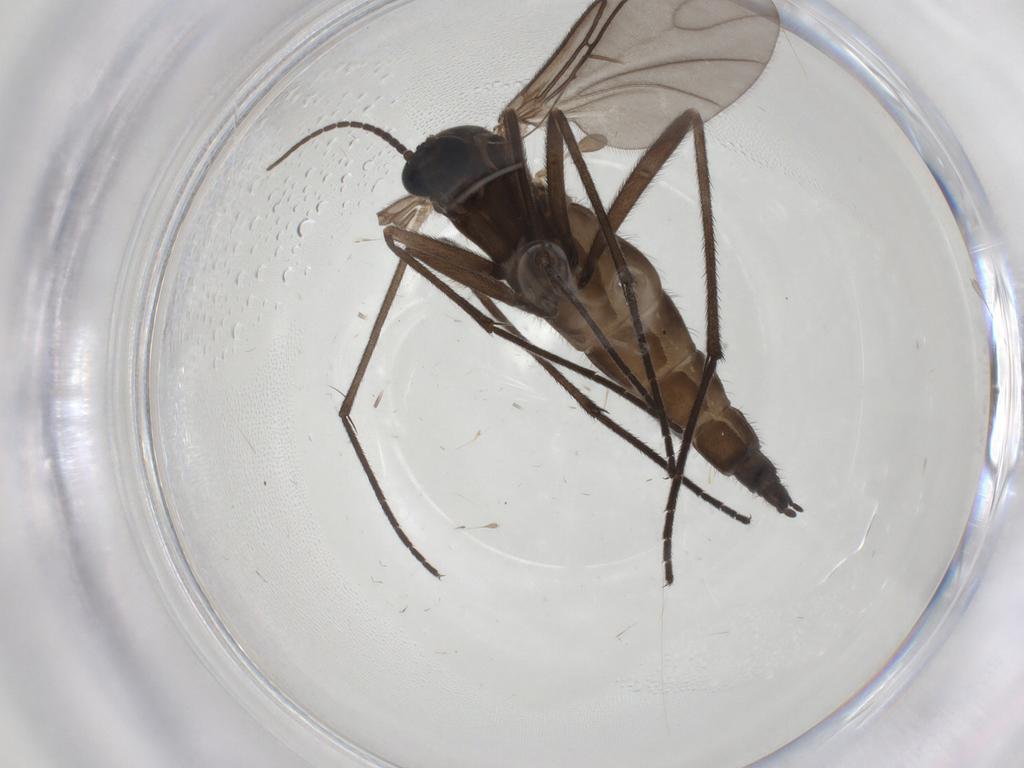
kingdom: Animalia
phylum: Arthropoda
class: Insecta
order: Diptera
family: Sciaridae
